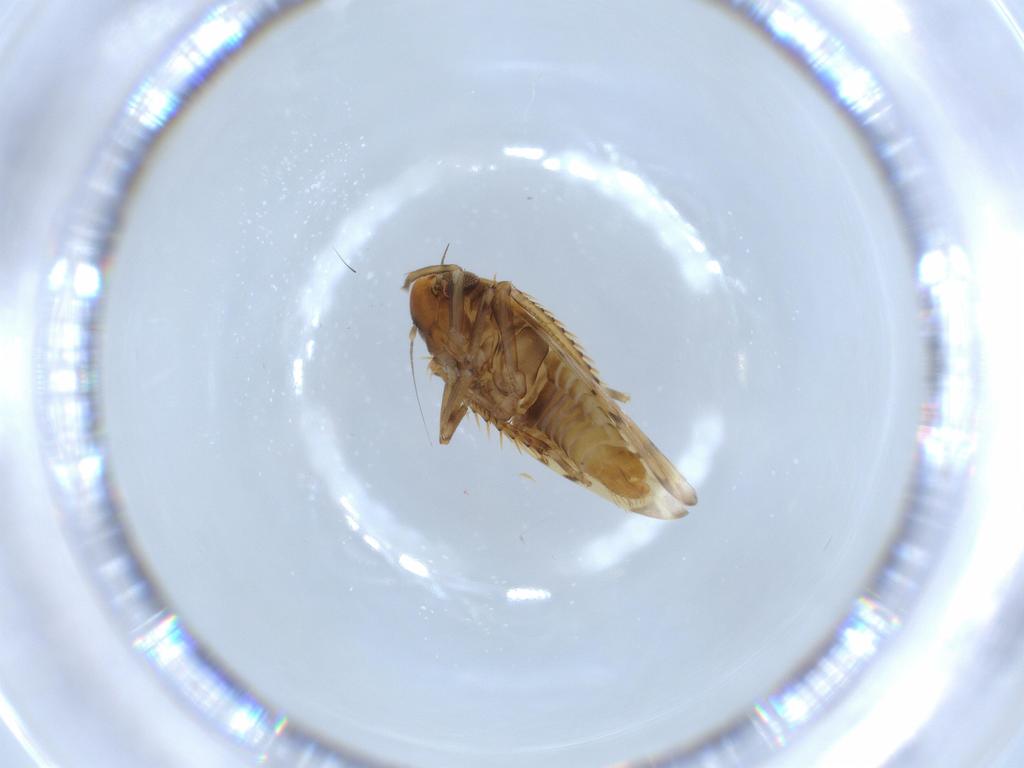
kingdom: Animalia
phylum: Arthropoda
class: Insecta
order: Hemiptera
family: Cicadellidae
